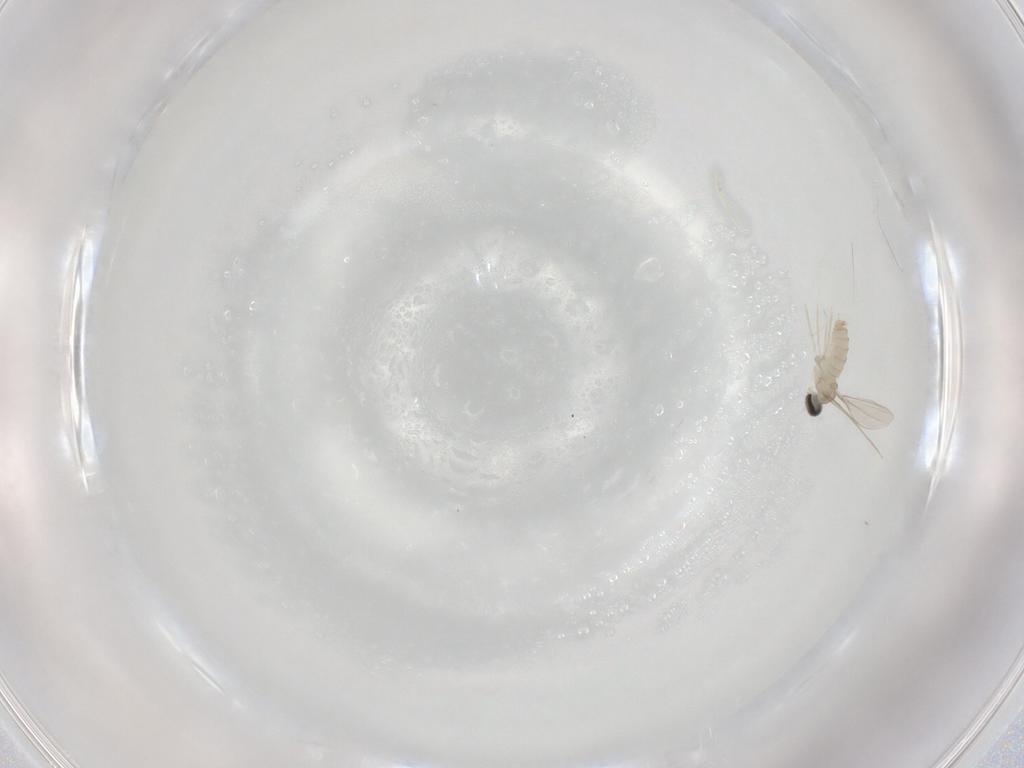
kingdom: Animalia
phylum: Arthropoda
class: Insecta
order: Diptera
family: Cecidomyiidae
